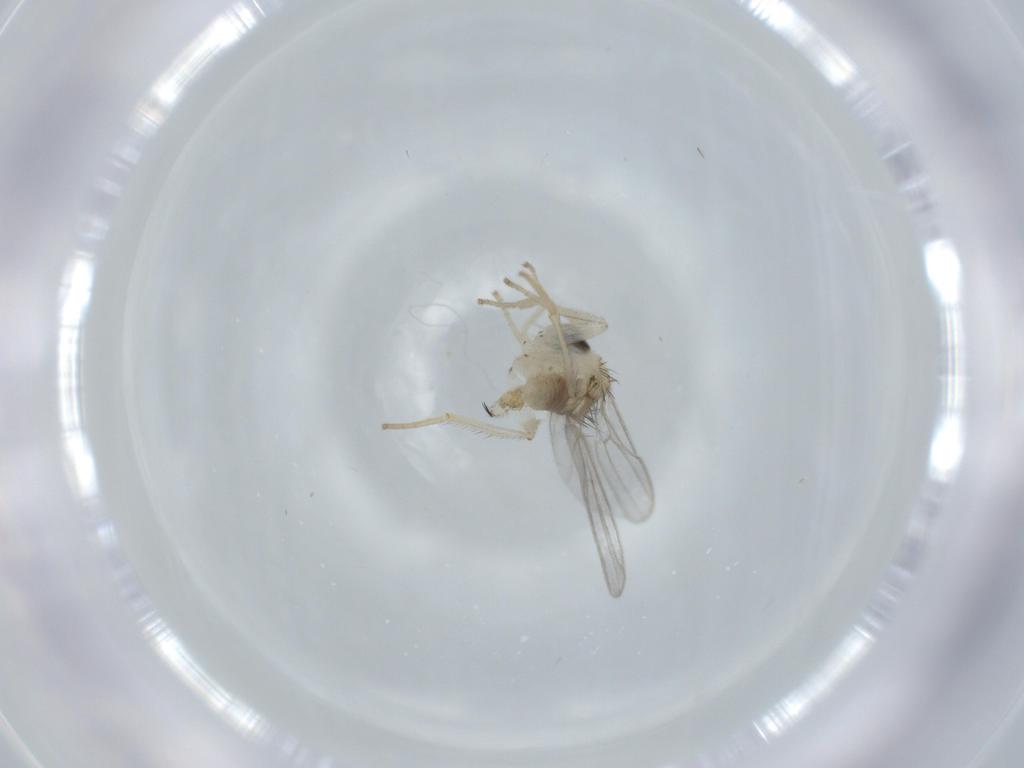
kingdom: Animalia
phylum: Arthropoda
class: Insecta
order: Diptera
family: Hybotidae
